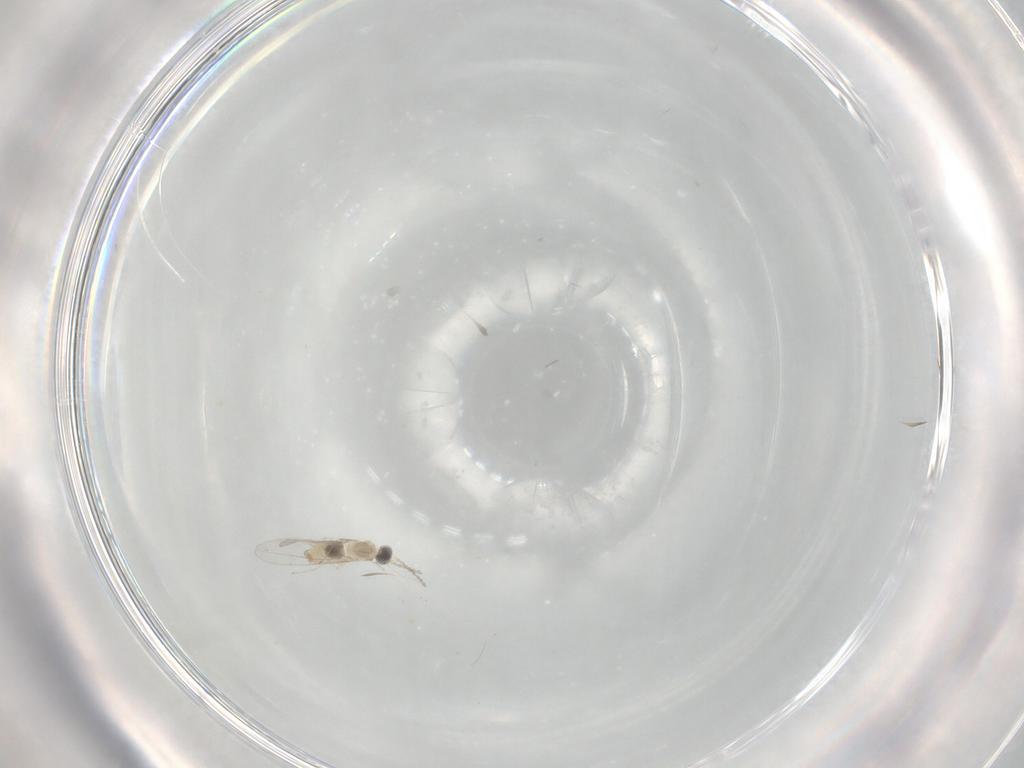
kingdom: Animalia
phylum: Arthropoda
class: Insecta
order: Diptera
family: Cecidomyiidae
